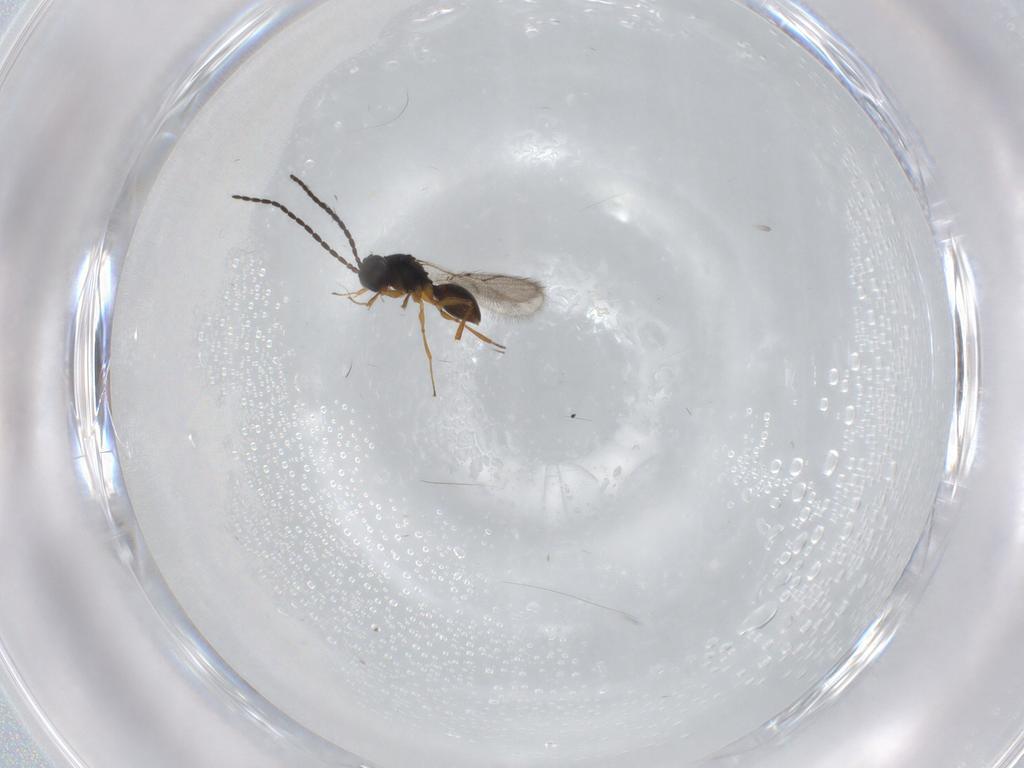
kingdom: Animalia
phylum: Arthropoda
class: Insecta
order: Hymenoptera
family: Figitidae
